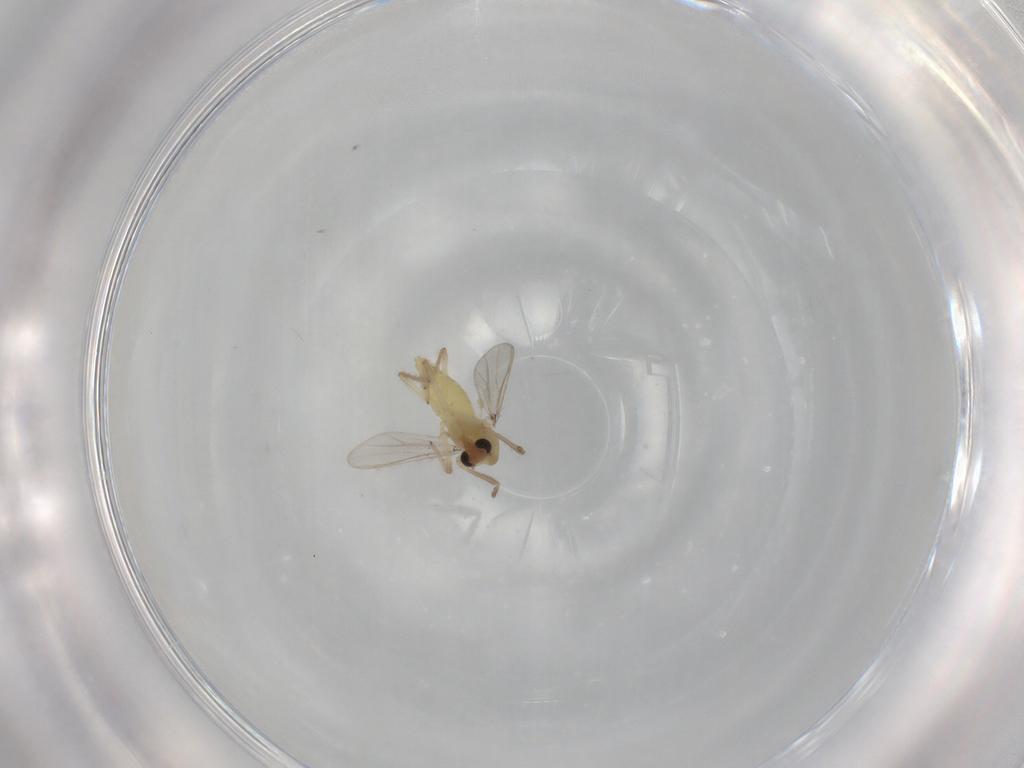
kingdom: Animalia
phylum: Arthropoda
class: Insecta
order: Diptera
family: Chironomidae
